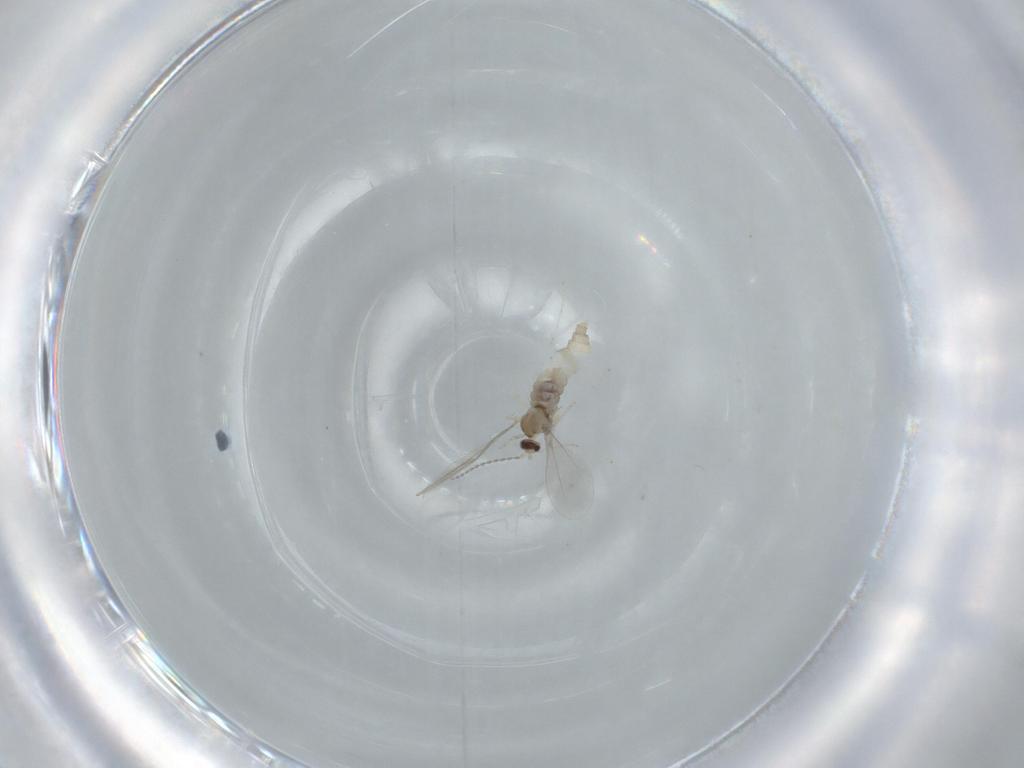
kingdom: Animalia
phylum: Arthropoda
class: Insecta
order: Diptera
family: Cecidomyiidae
